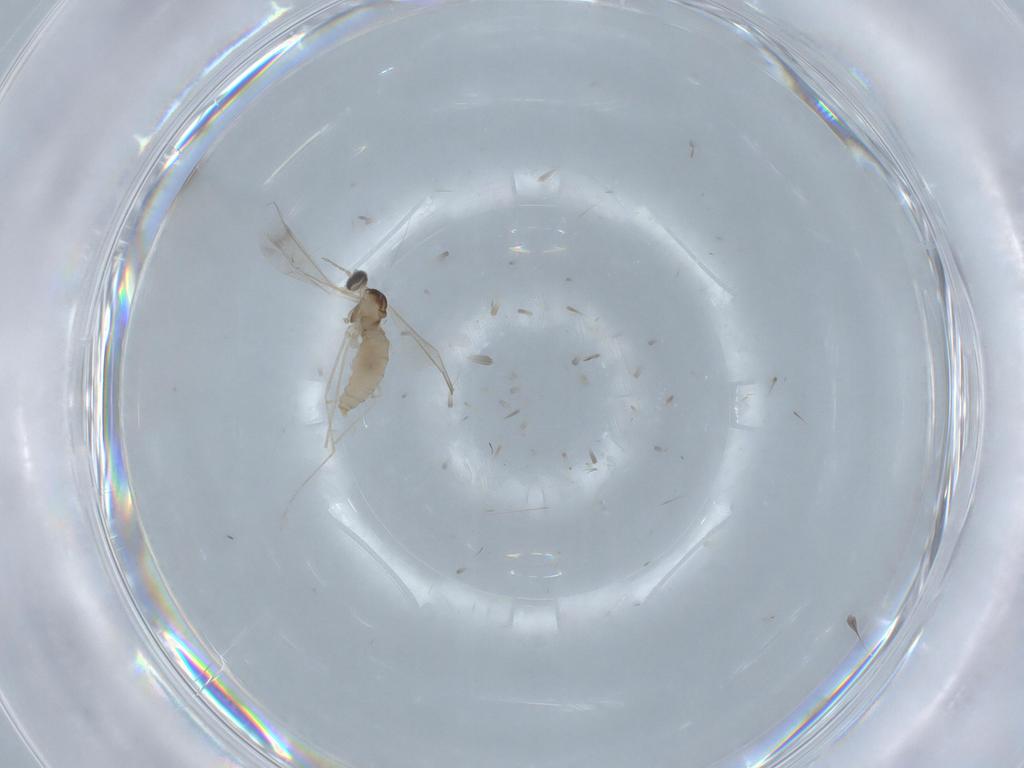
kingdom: Animalia
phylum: Arthropoda
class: Insecta
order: Diptera
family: Cecidomyiidae
